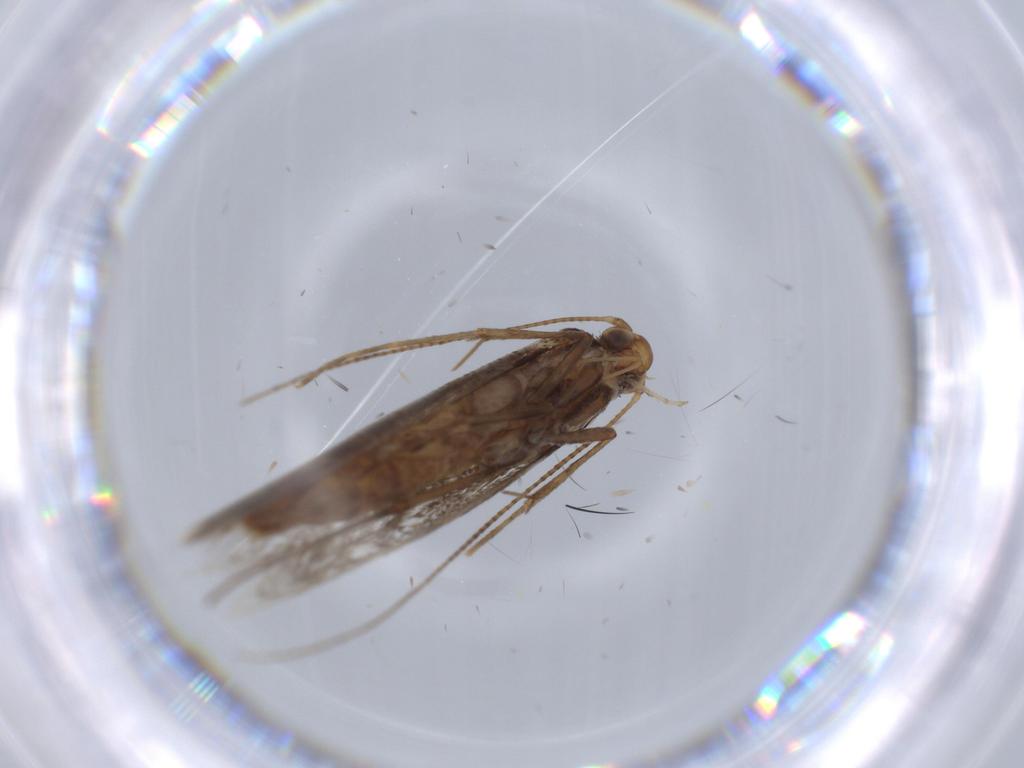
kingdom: Animalia
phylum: Arthropoda
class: Insecta
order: Lepidoptera
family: Gracillariidae
